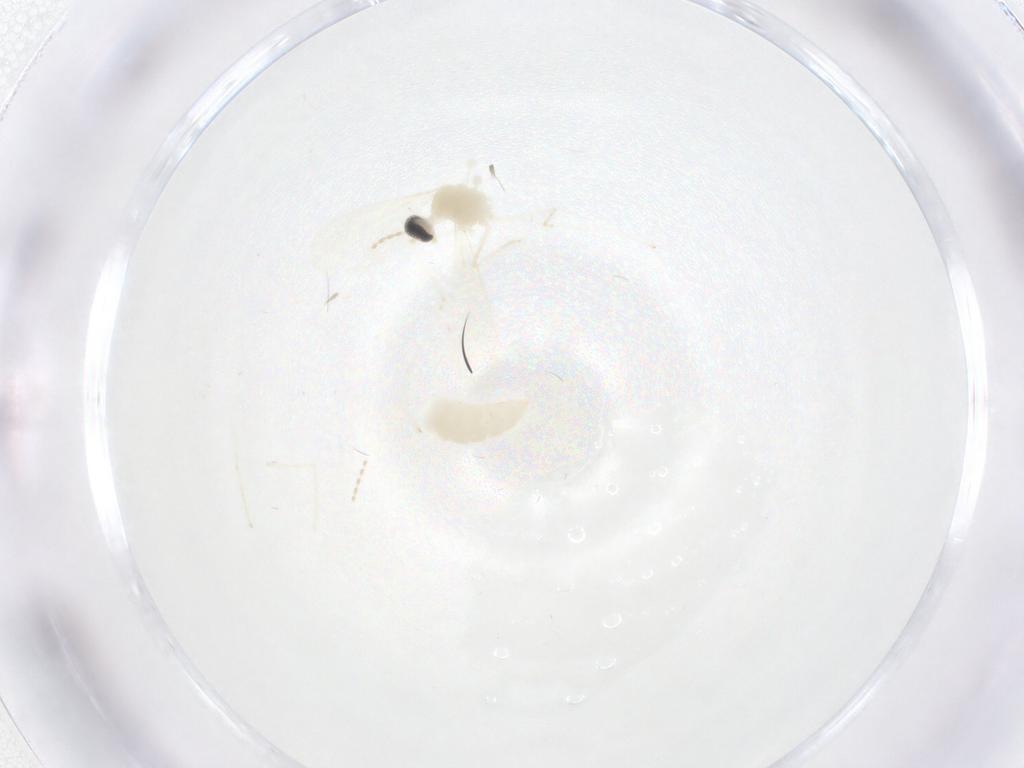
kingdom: Animalia
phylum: Arthropoda
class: Insecta
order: Diptera
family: Cecidomyiidae
